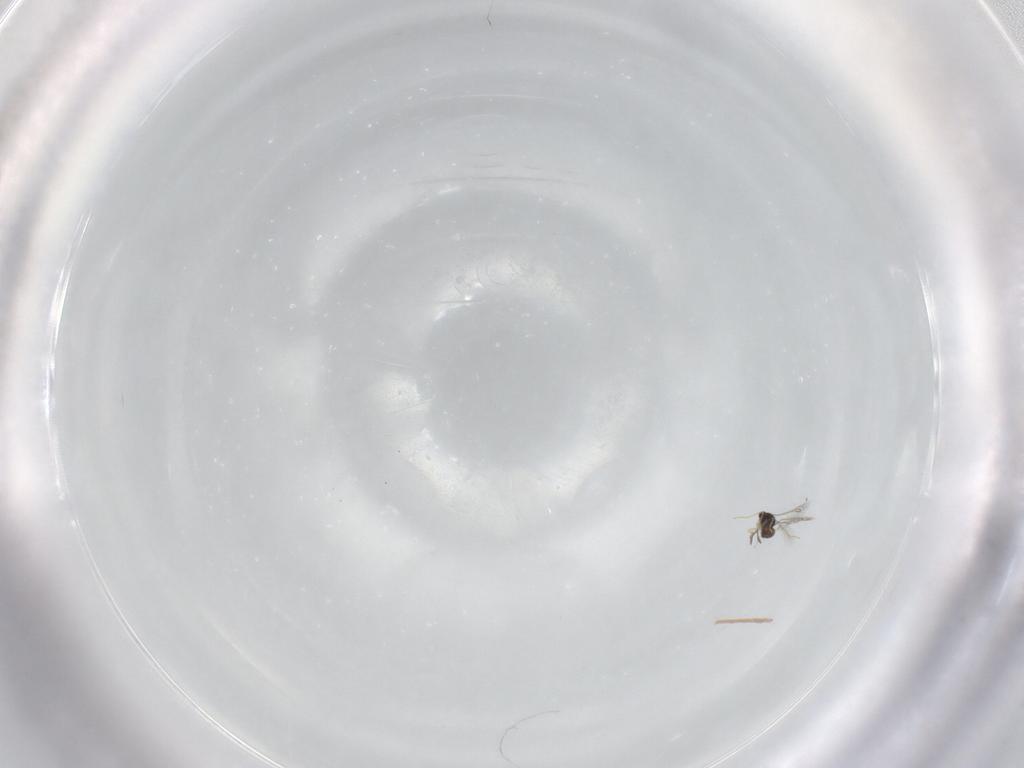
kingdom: Animalia
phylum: Arthropoda
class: Insecta
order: Hymenoptera
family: Mymaridae
